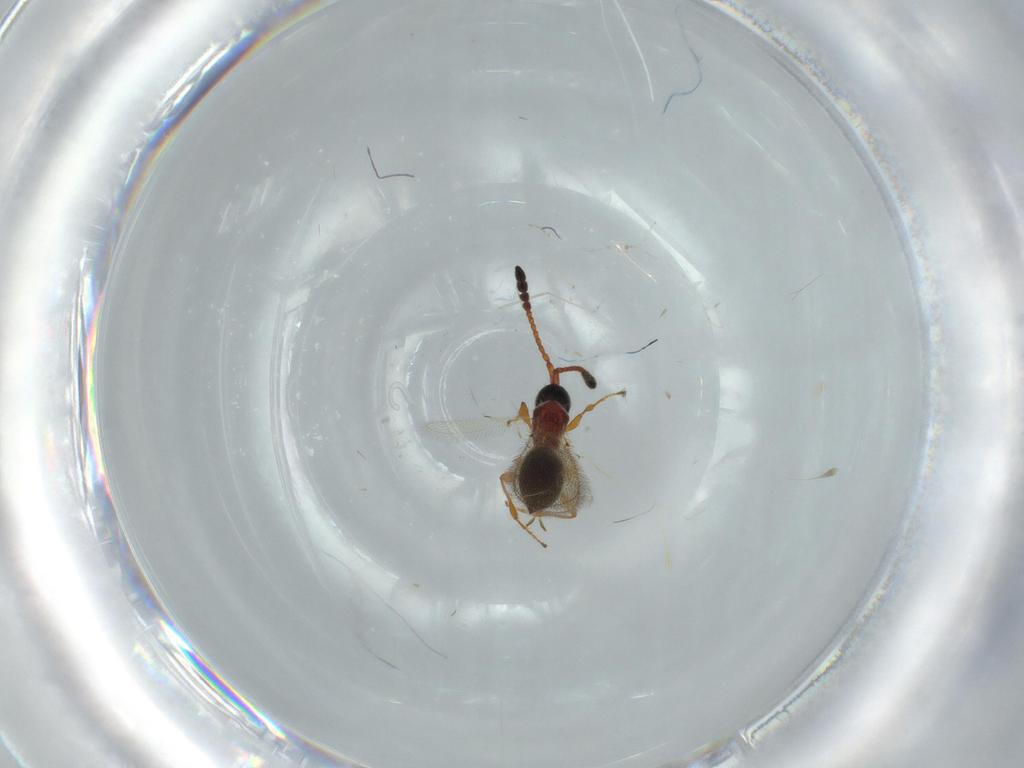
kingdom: Animalia
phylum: Arthropoda
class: Insecta
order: Hymenoptera
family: Diapriidae
